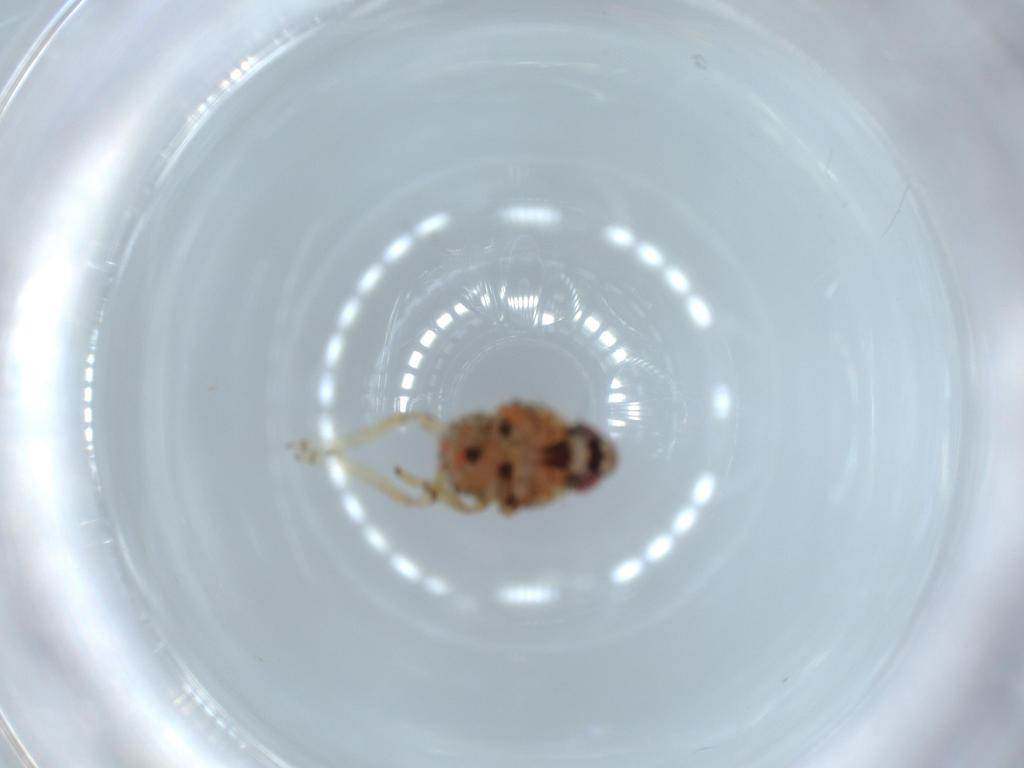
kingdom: Animalia
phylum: Arthropoda
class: Insecta
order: Hemiptera
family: Issidae
